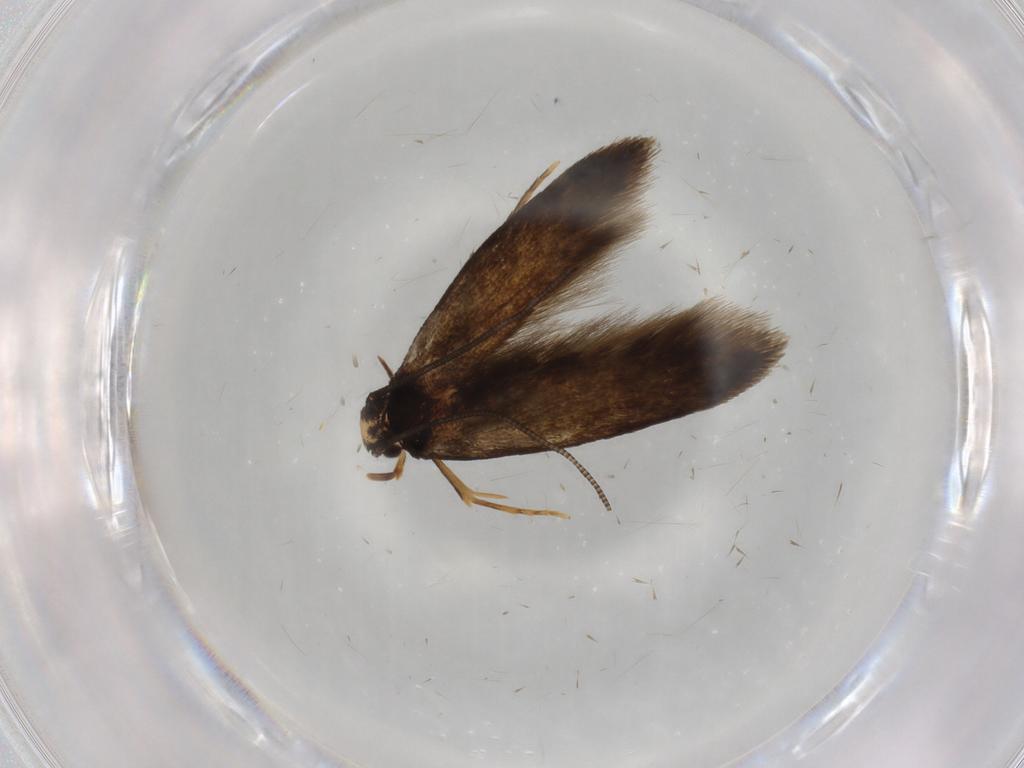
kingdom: Animalia
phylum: Arthropoda
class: Insecta
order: Lepidoptera
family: Tineidae
